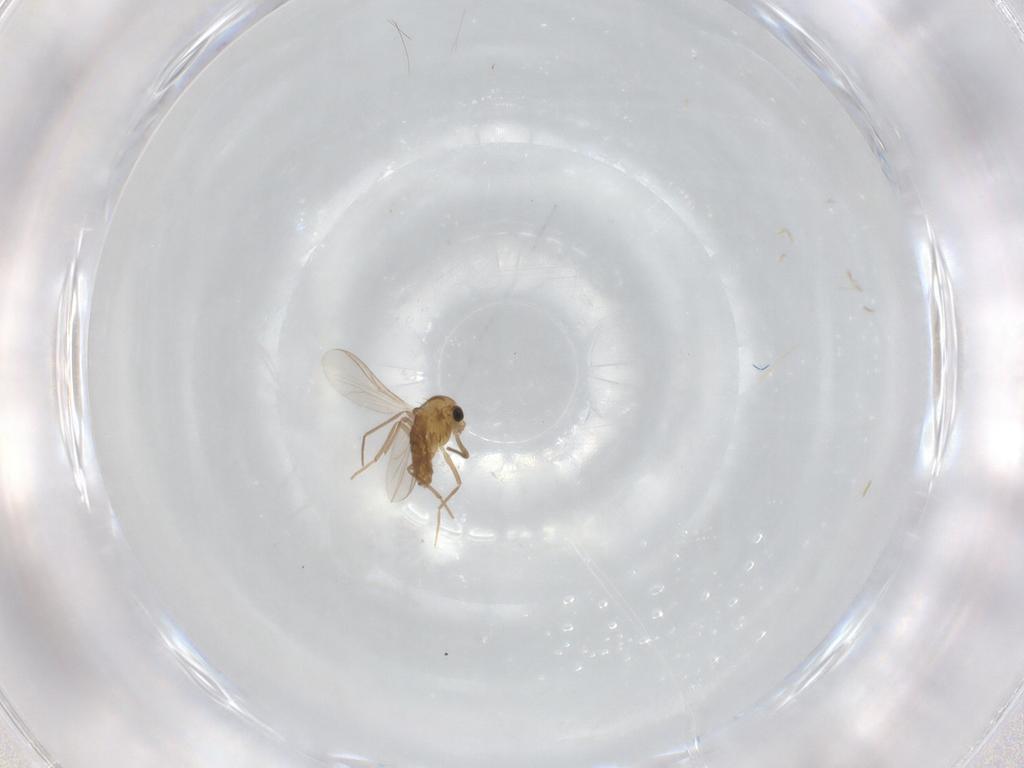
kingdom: Animalia
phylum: Arthropoda
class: Insecta
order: Diptera
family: Chironomidae
